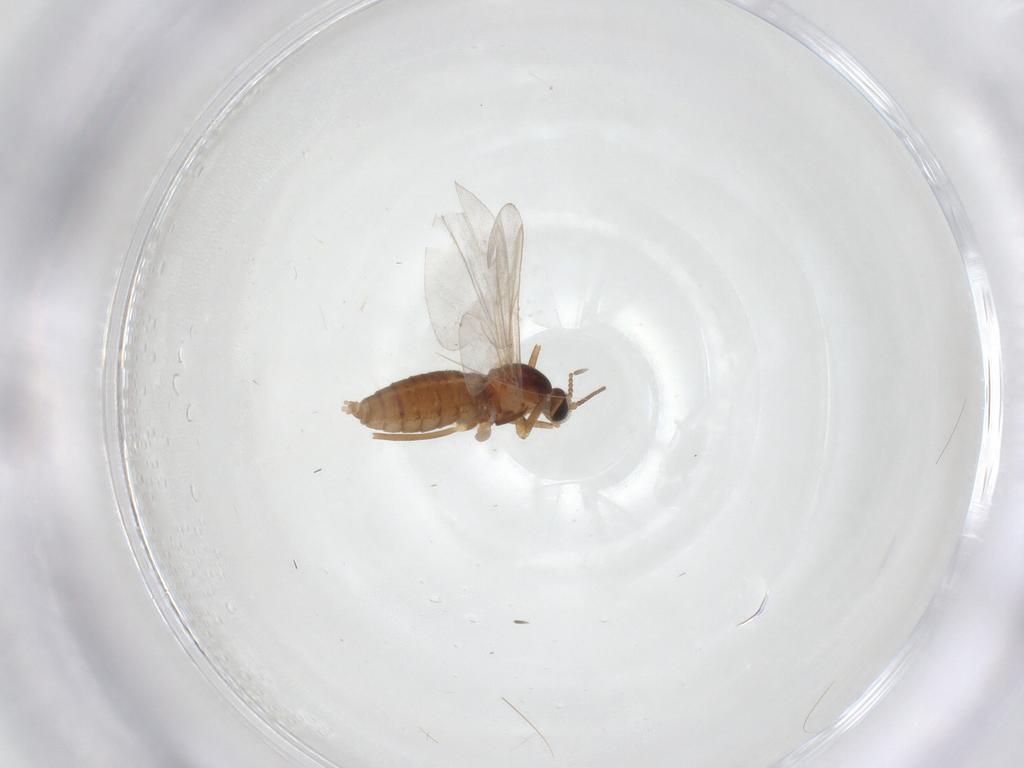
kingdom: Animalia
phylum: Arthropoda
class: Insecta
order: Diptera
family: Cecidomyiidae
